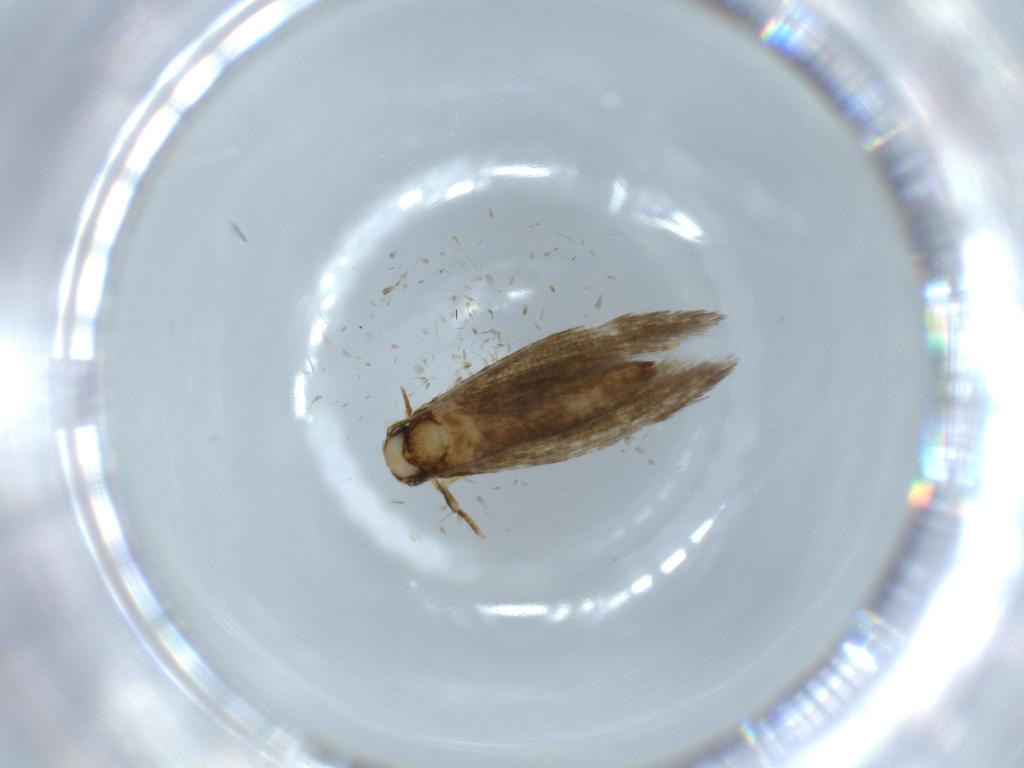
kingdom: Animalia
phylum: Arthropoda
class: Insecta
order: Lepidoptera
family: Tineidae
